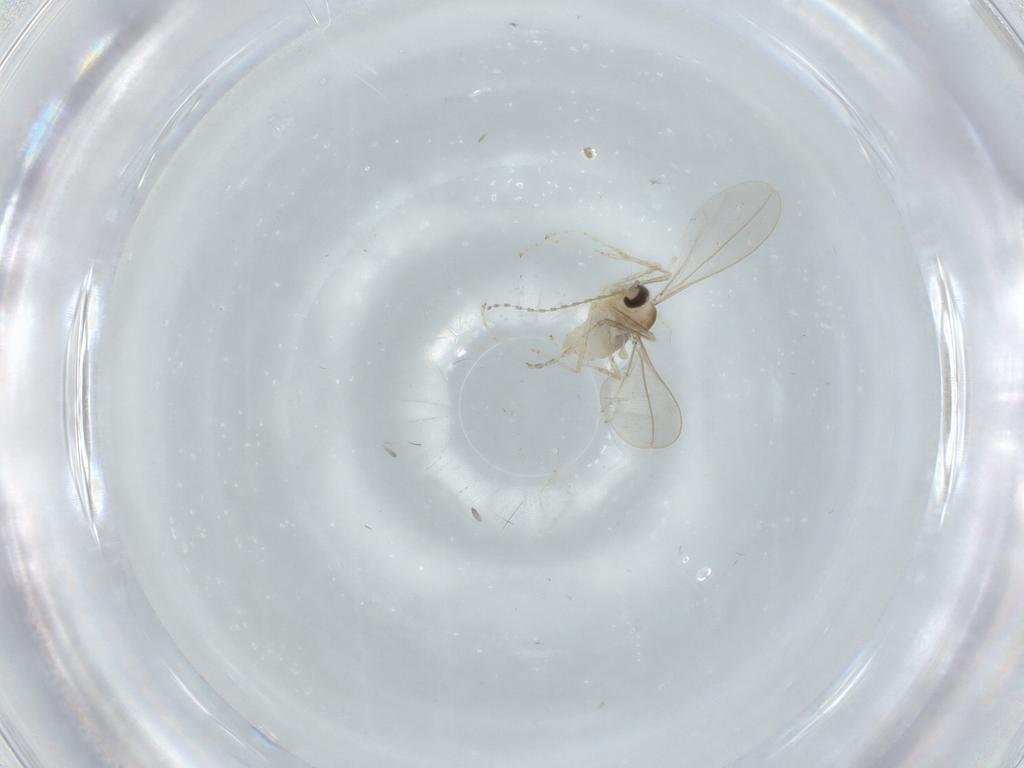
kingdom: Animalia
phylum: Arthropoda
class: Insecta
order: Diptera
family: Cecidomyiidae
